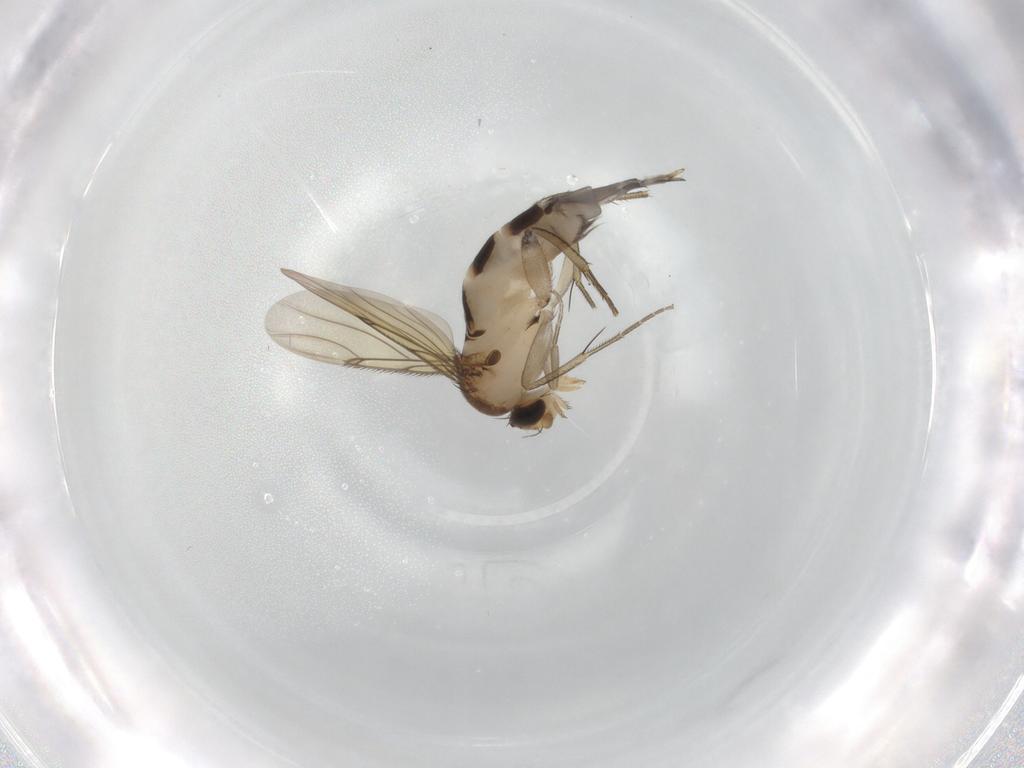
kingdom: Animalia
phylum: Arthropoda
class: Insecta
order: Diptera
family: Phoridae
